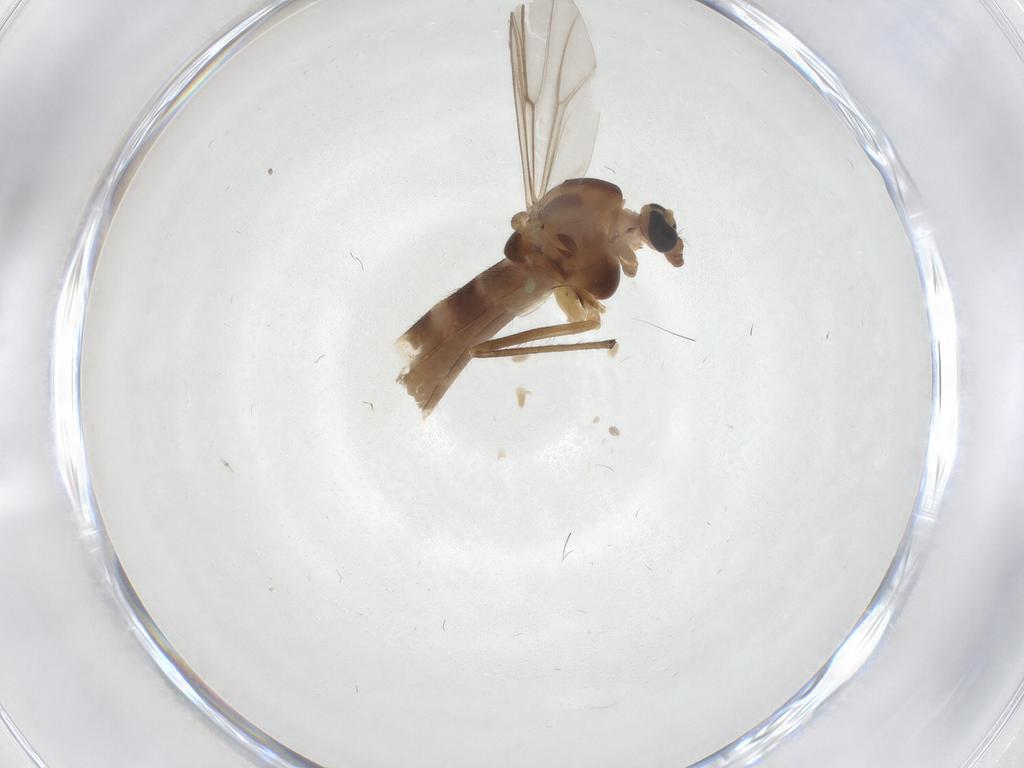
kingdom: Animalia
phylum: Arthropoda
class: Insecta
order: Diptera
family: Chironomidae
